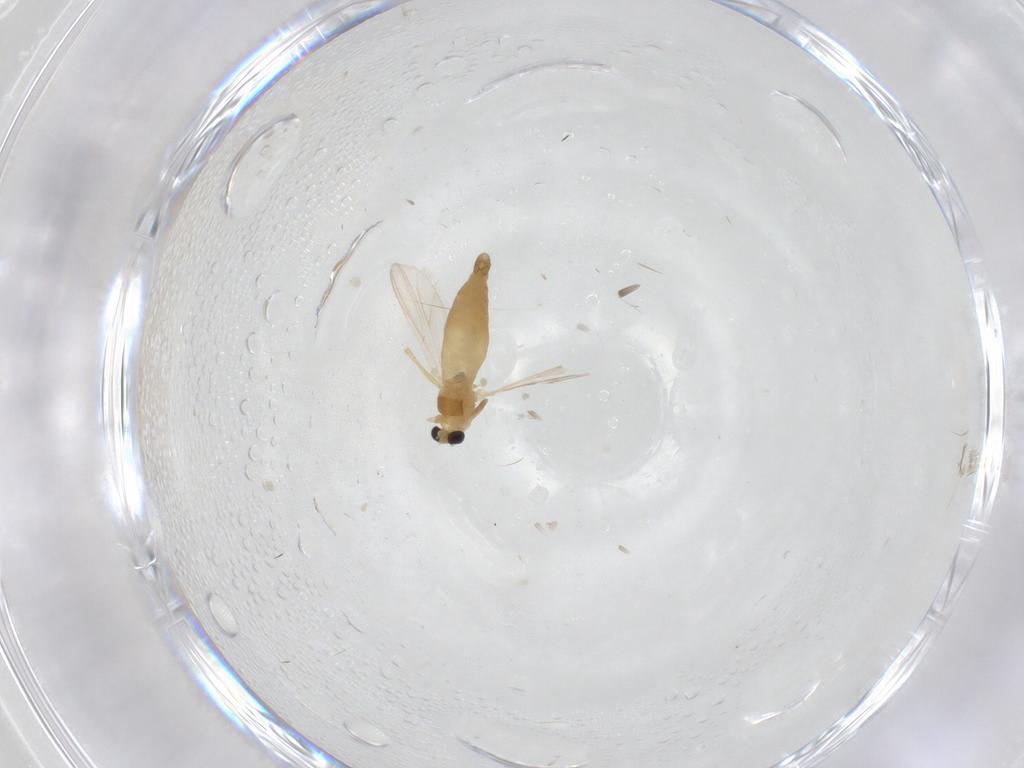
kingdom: Animalia
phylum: Arthropoda
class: Insecta
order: Diptera
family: Chironomidae
